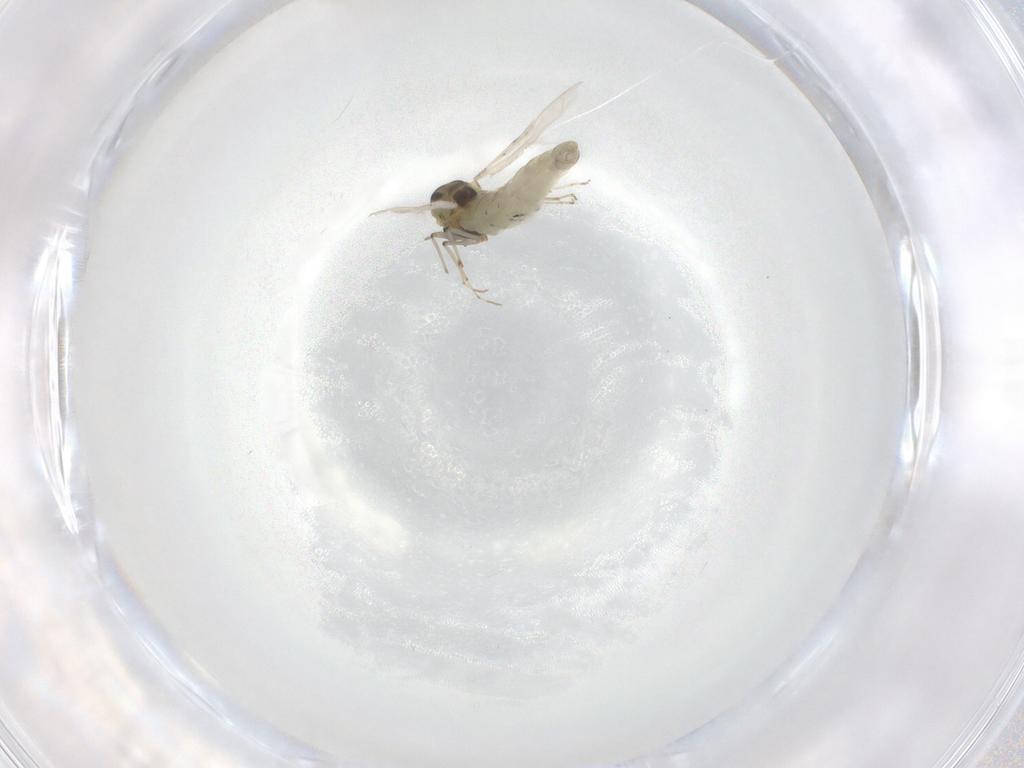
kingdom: Animalia
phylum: Arthropoda
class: Insecta
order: Diptera
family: Chironomidae
